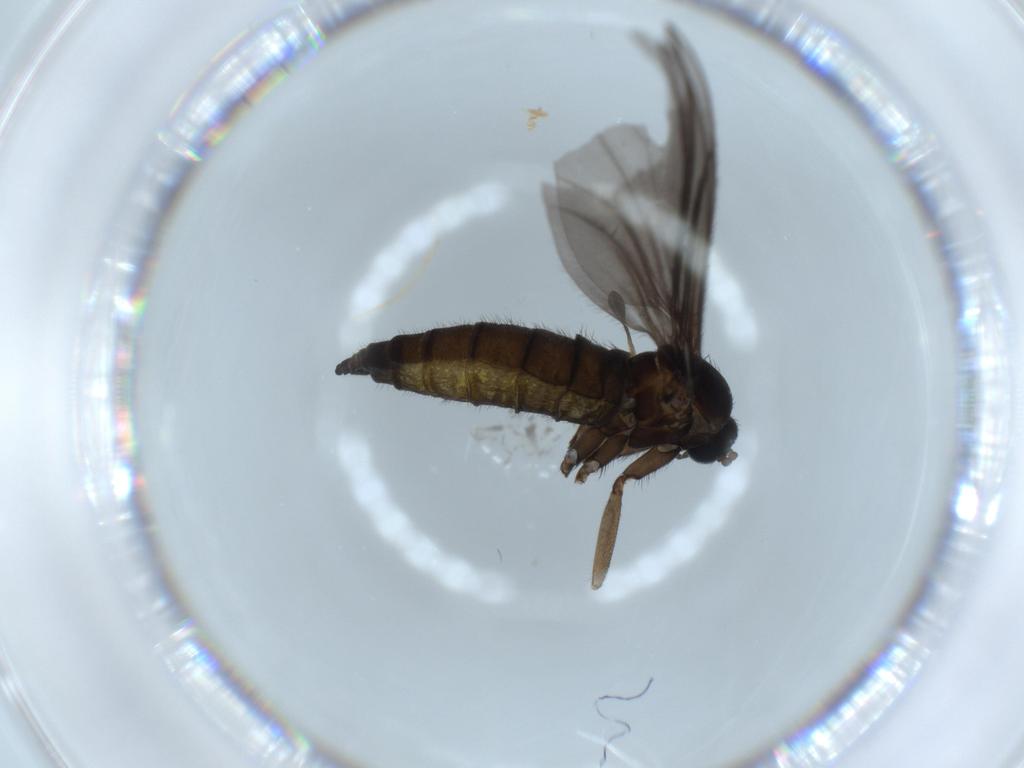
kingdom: Animalia
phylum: Arthropoda
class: Insecta
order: Diptera
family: Sciaridae
